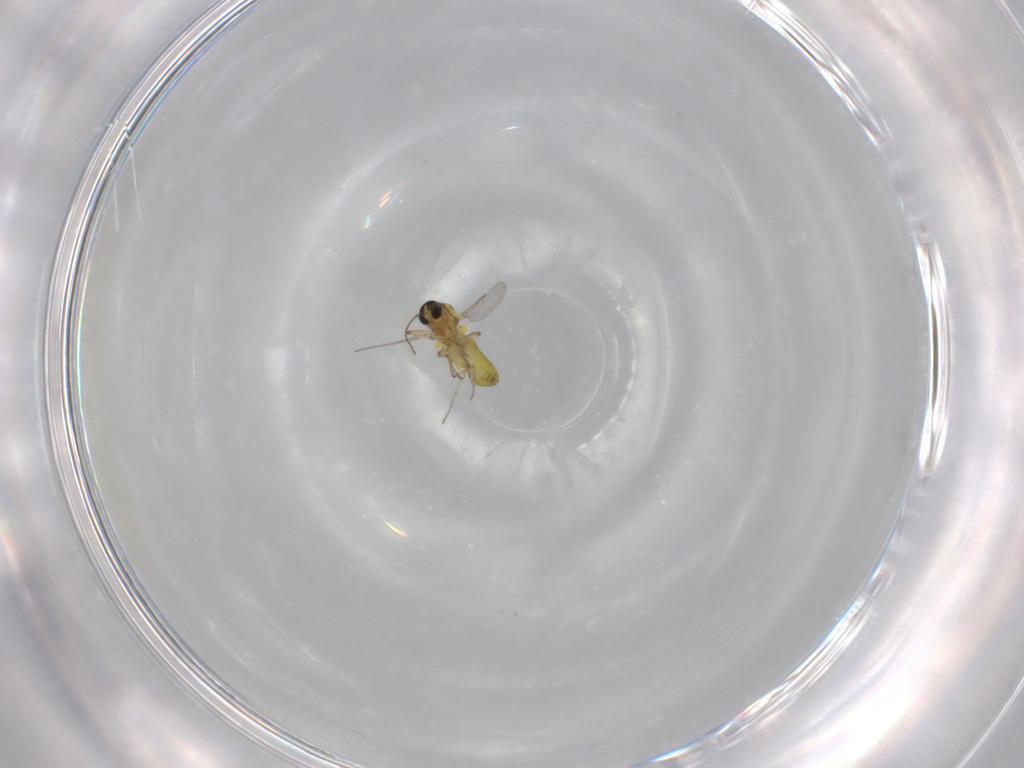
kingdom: Animalia
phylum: Arthropoda
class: Insecta
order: Diptera
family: Ceratopogonidae
